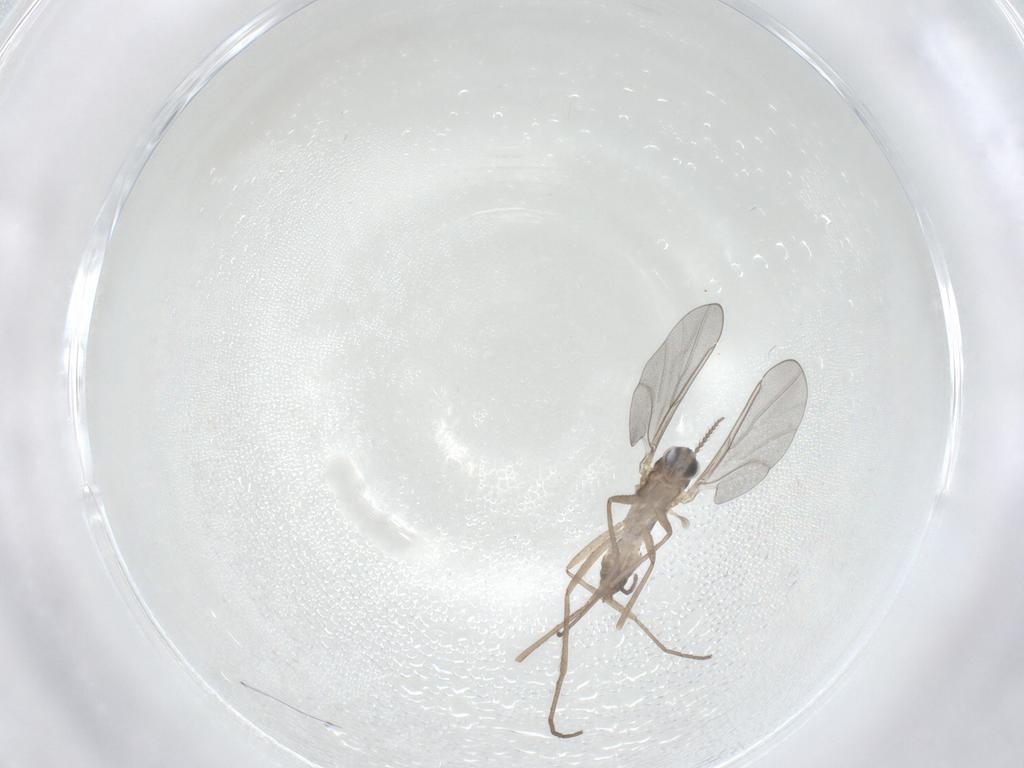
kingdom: Animalia
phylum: Arthropoda
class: Insecta
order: Diptera
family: Cecidomyiidae
